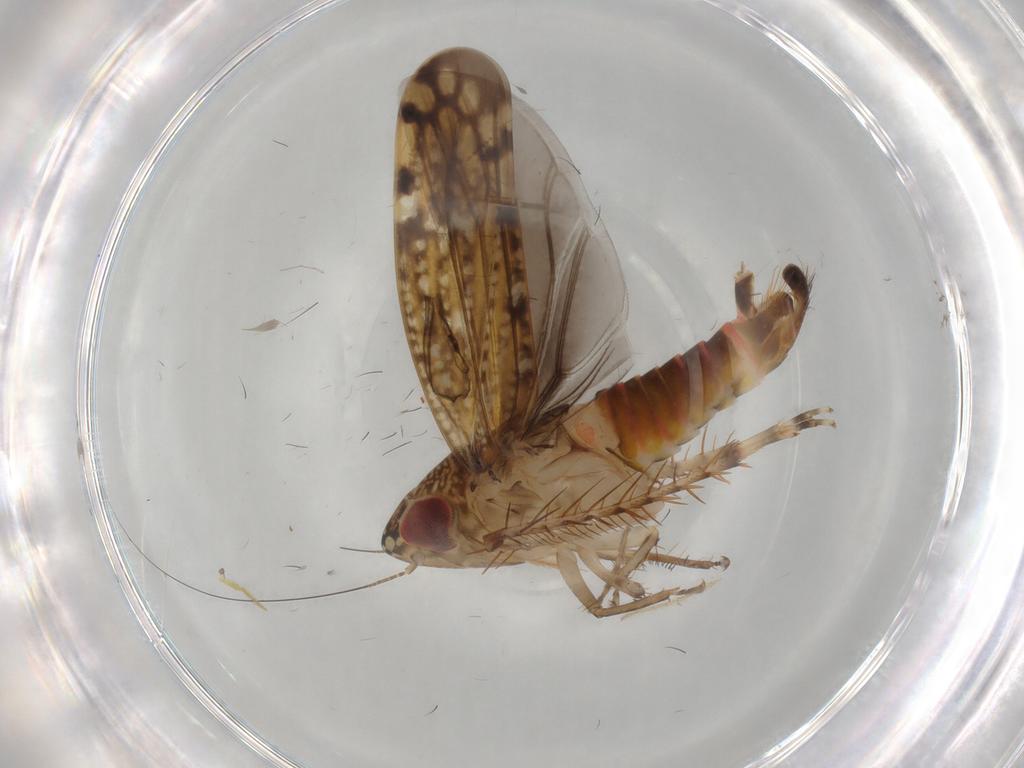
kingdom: Animalia
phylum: Arthropoda
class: Insecta
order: Hemiptera
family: Cicadellidae
